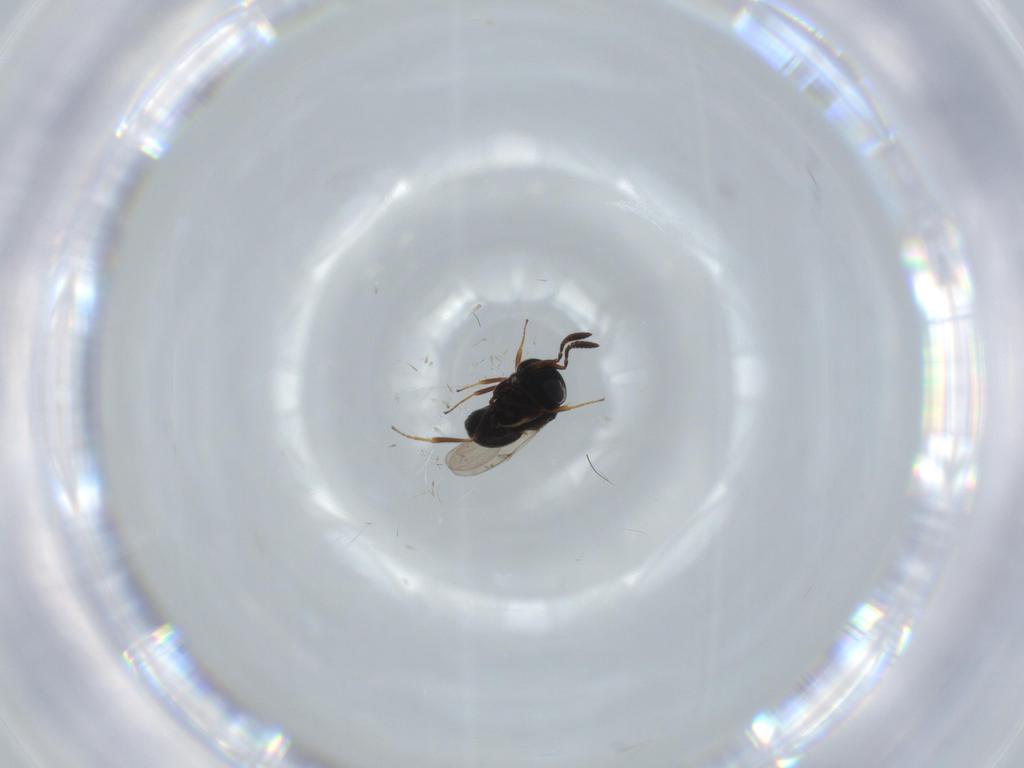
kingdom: Animalia
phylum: Arthropoda
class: Insecta
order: Hymenoptera
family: Scelionidae
